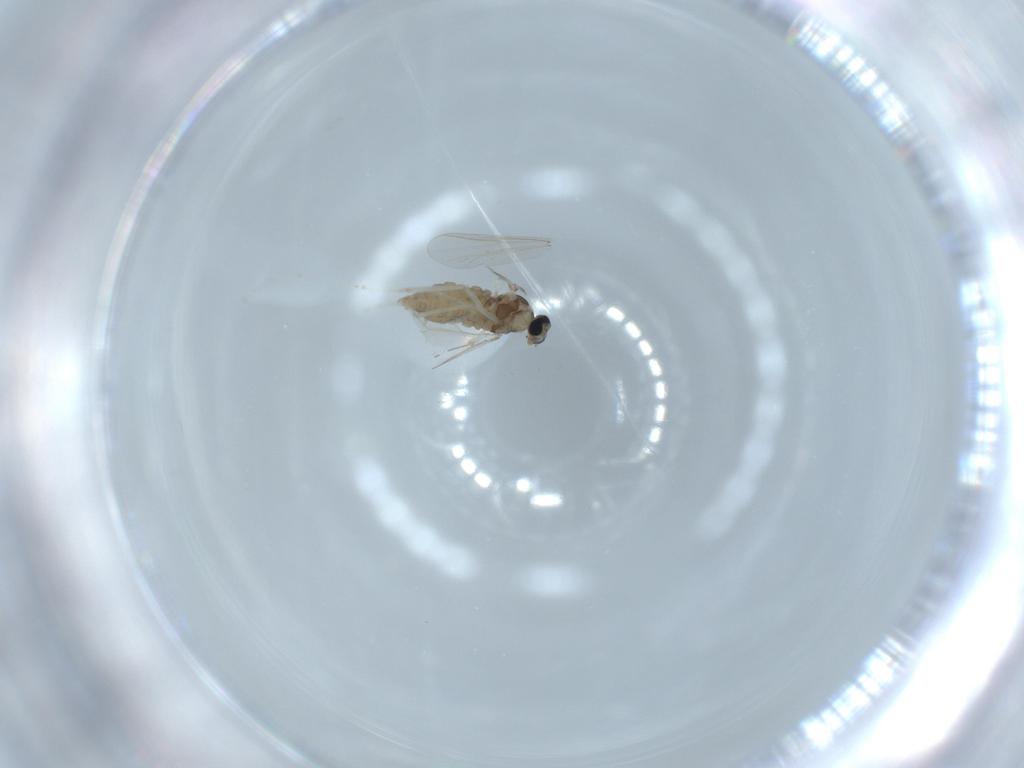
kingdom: Animalia
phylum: Arthropoda
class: Insecta
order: Diptera
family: Cecidomyiidae
